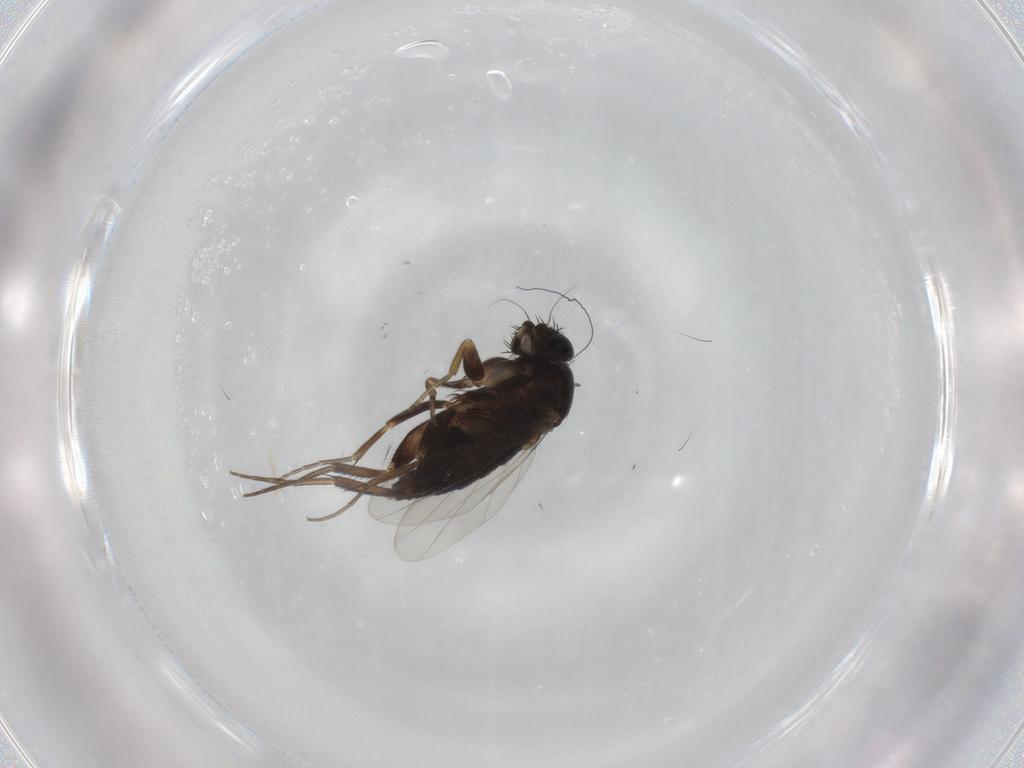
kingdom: Animalia
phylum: Arthropoda
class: Insecta
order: Diptera
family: Phoridae
